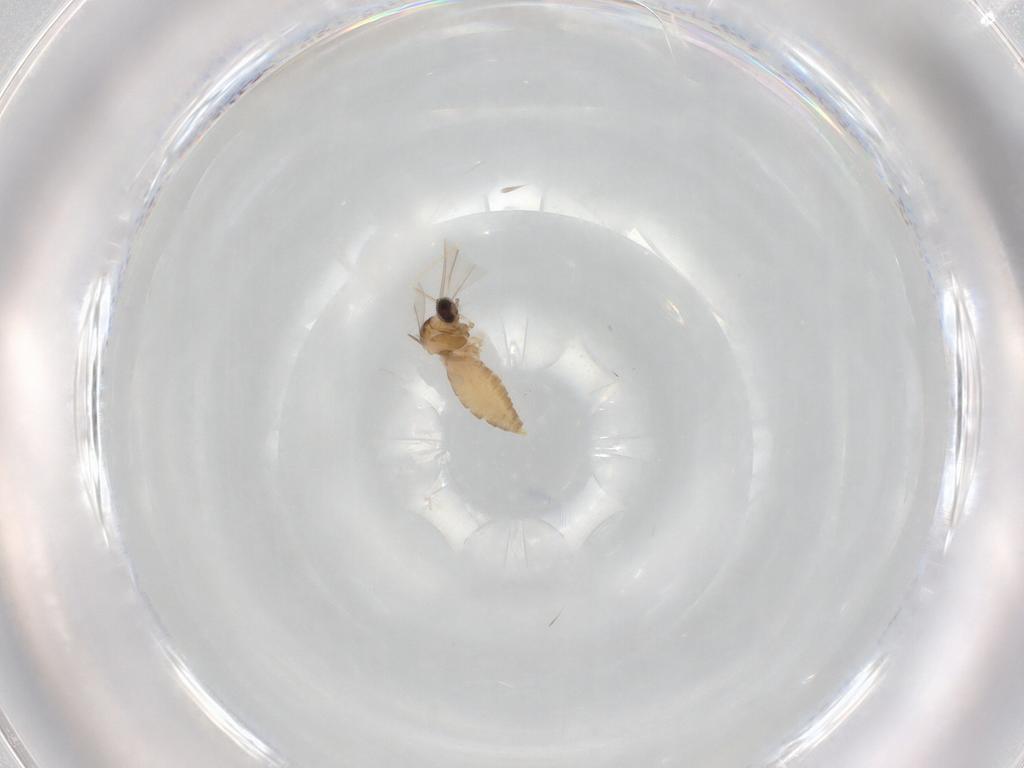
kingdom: Animalia
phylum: Arthropoda
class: Insecta
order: Diptera
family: Cecidomyiidae
